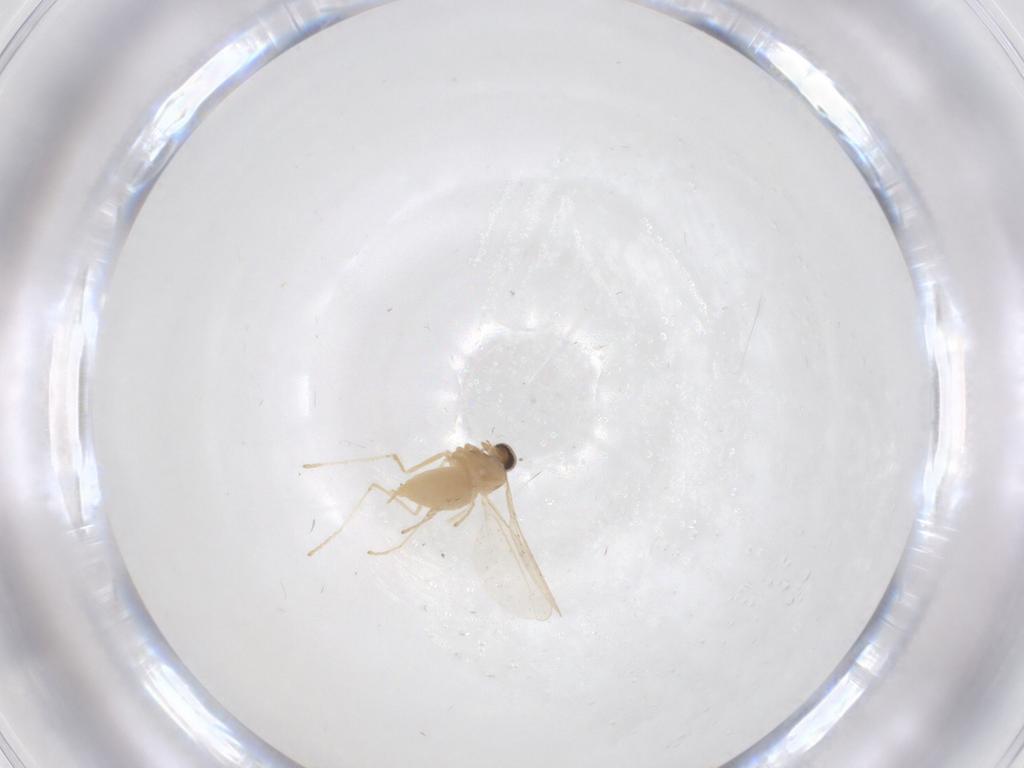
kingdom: Animalia
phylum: Arthropoda
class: Insecta
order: Diptera
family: Cecidomyiidae
